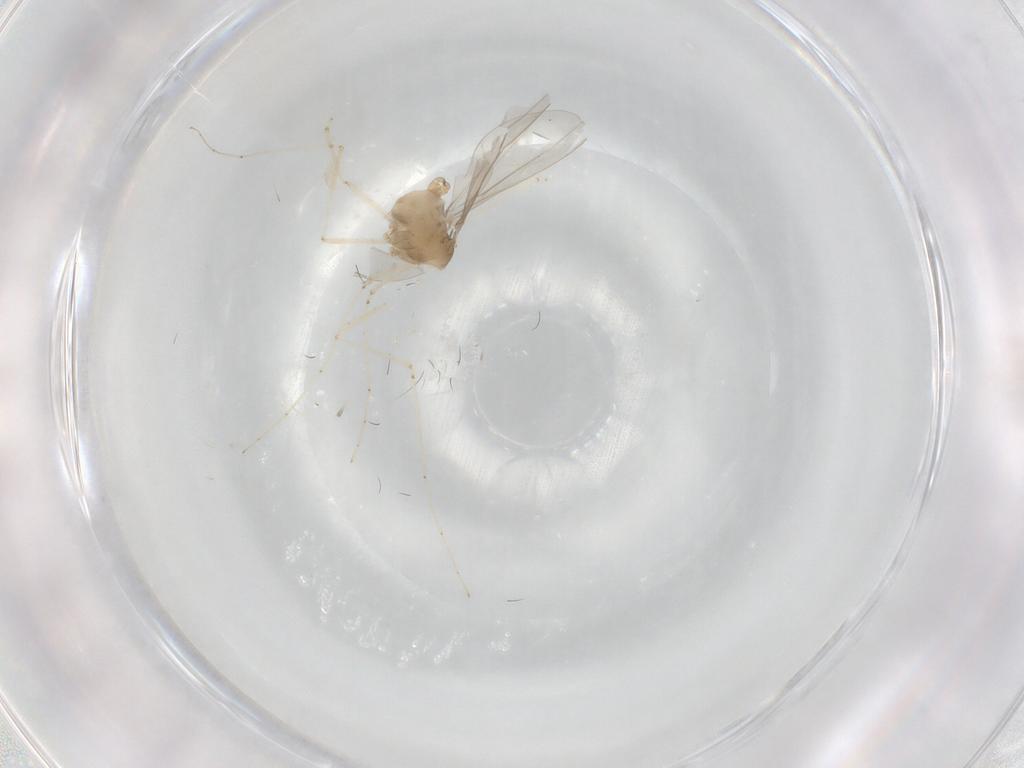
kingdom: Animalia
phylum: Arthropoda
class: Insecta
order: Diptera
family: Cecidomyiidae
